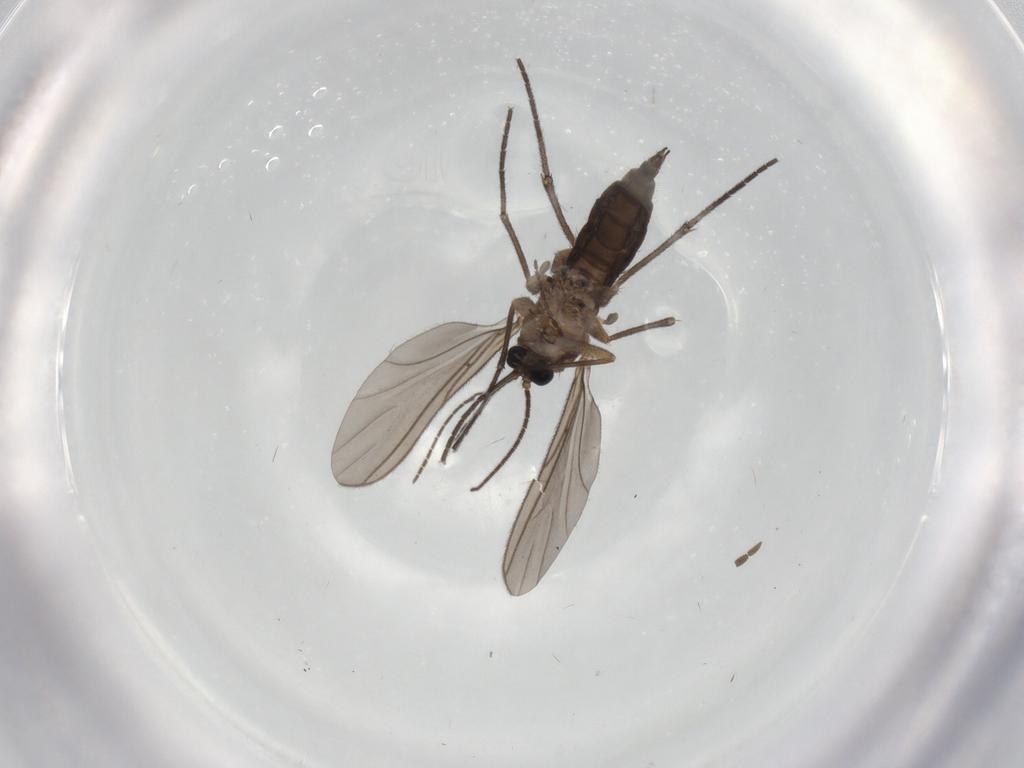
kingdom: Animalia
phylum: Arthropoda
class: Insecta
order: Diptera
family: Sciaridae
